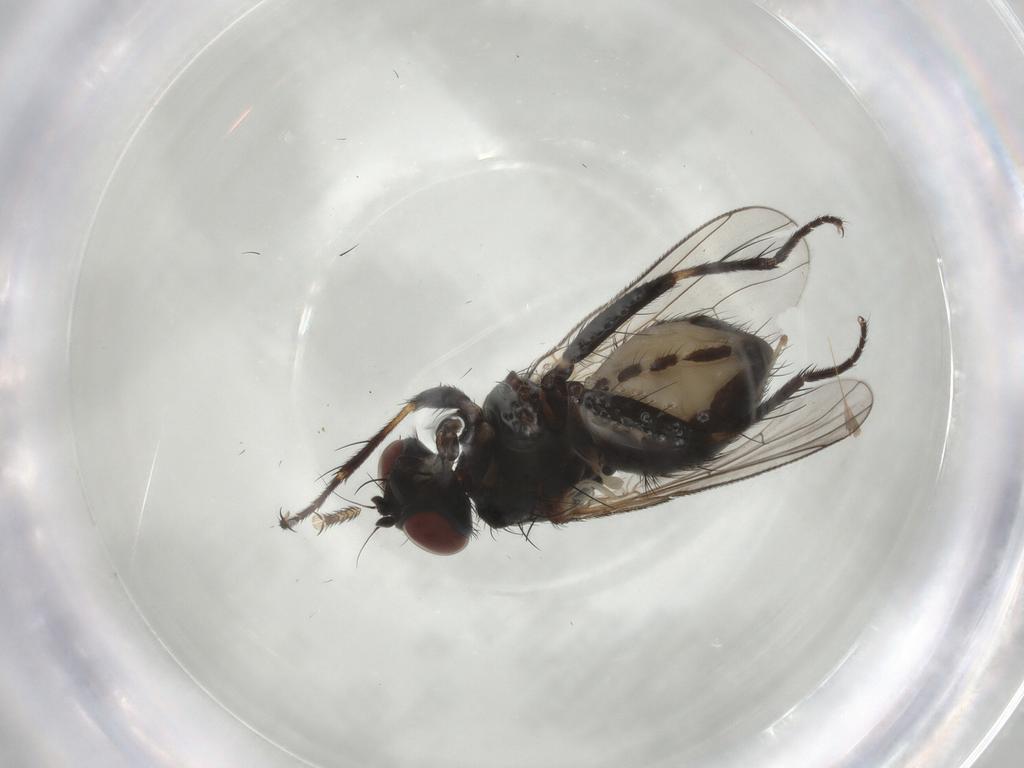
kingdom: Animalia
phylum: Arthropoda
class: Insecta
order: Diptera
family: Muscidae
